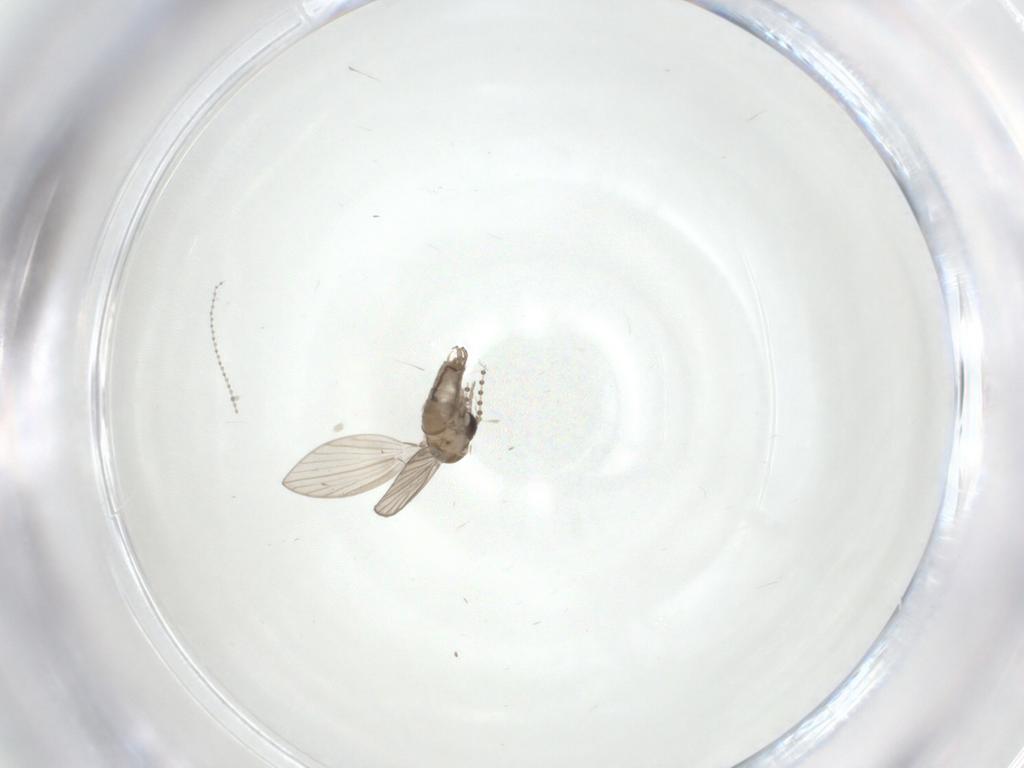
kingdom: Animalia
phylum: Arthropoda
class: Insecta
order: Diptera
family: Cecidomyiidae
